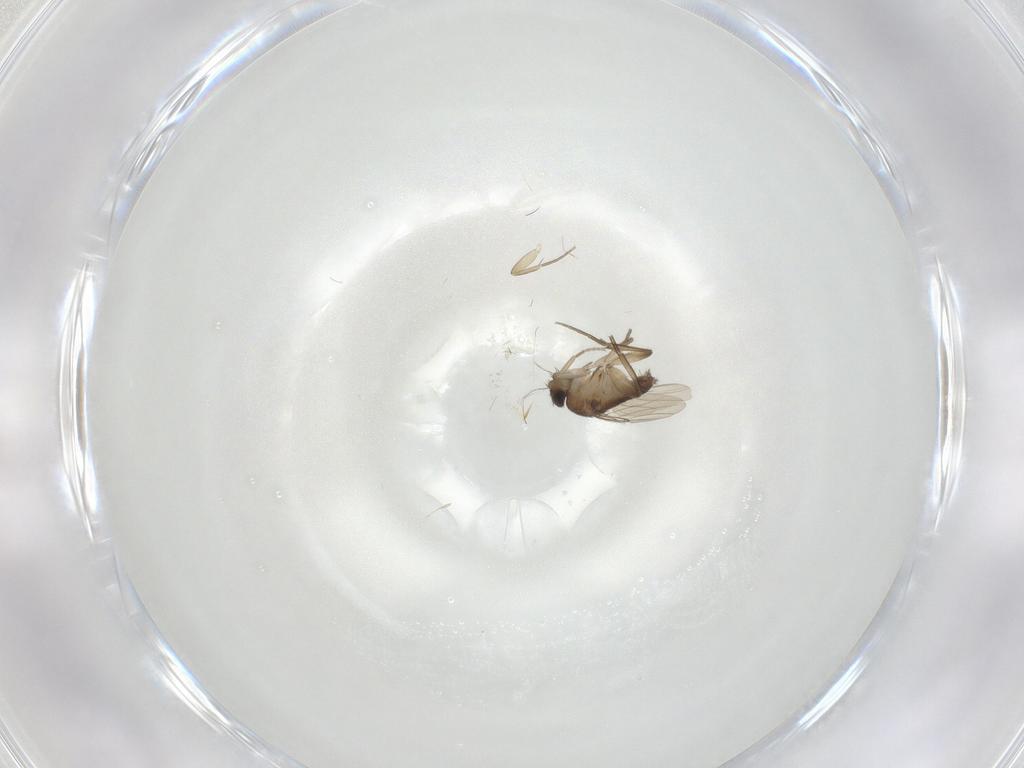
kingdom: Animalia
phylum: Arthropoda
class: Insecta
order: Diptera
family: Phoridae
